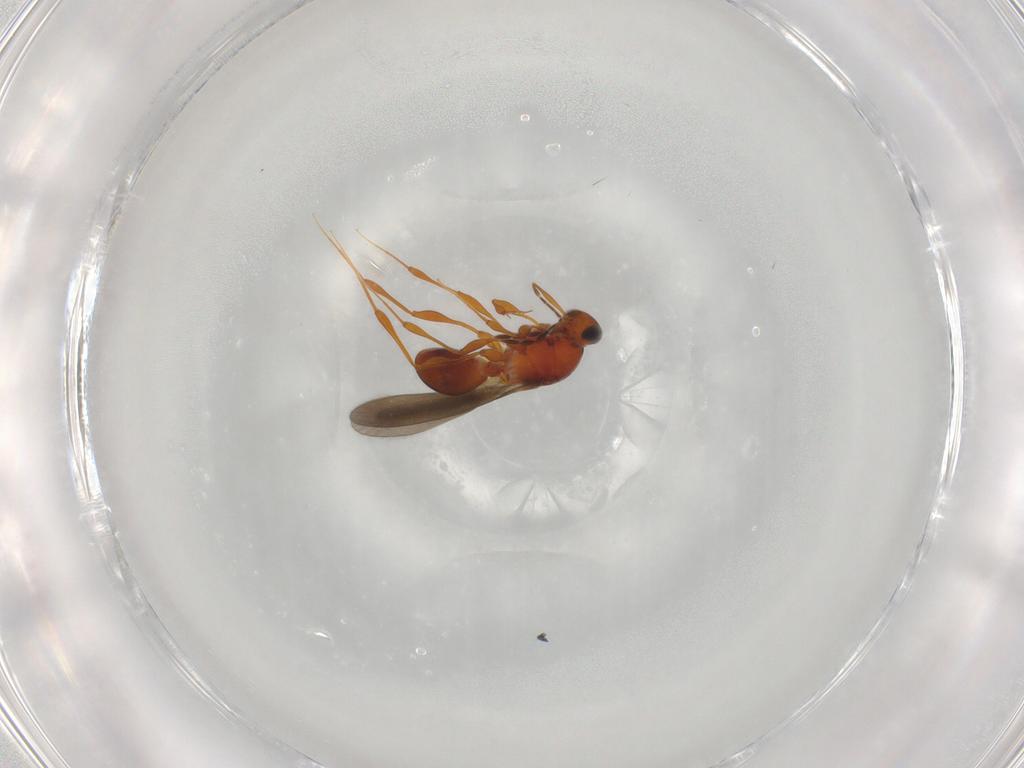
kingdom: Animalia
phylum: Arthropoda
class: Insecta
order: Hymenoptera
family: Platygastridae
